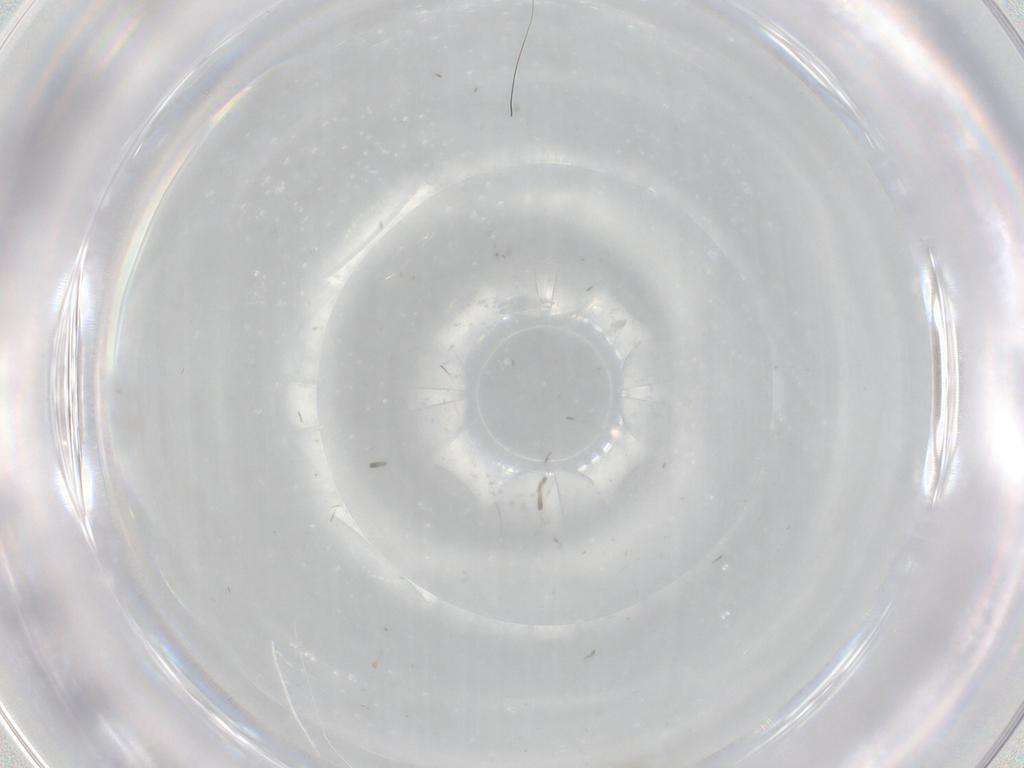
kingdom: Animalia
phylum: Arthropoda
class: Insecta
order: Diptera
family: Cecidomyiidae
